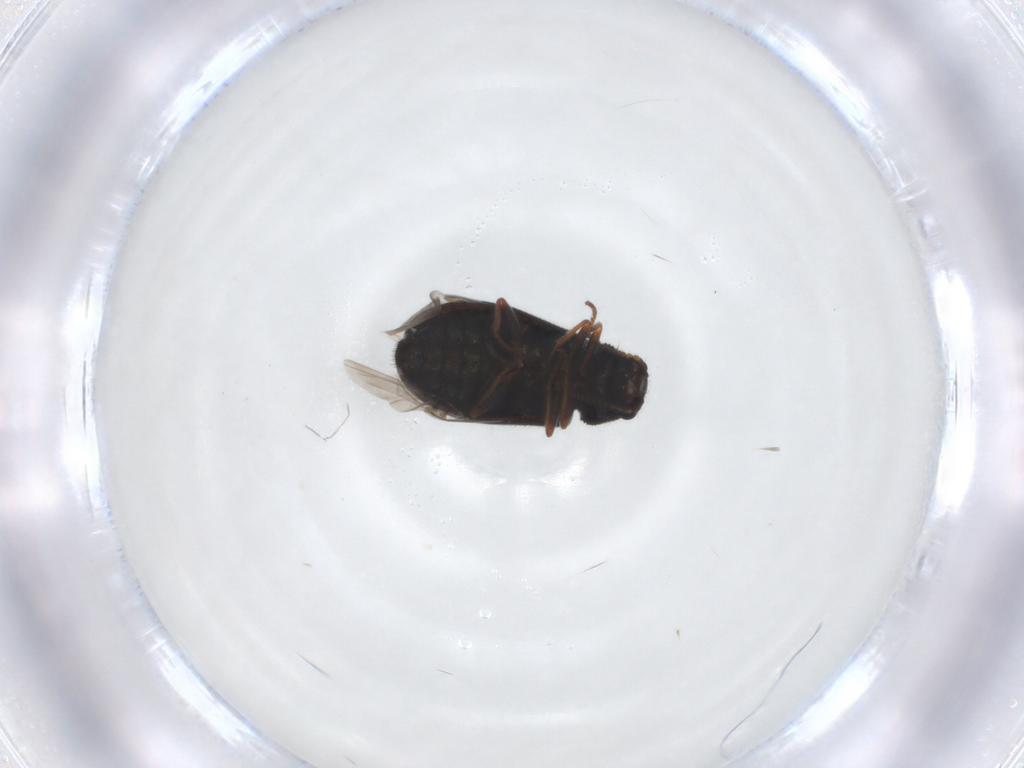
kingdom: Animalia
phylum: Arthropoda
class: Insecta
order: Coleoptera
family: Melyridae
